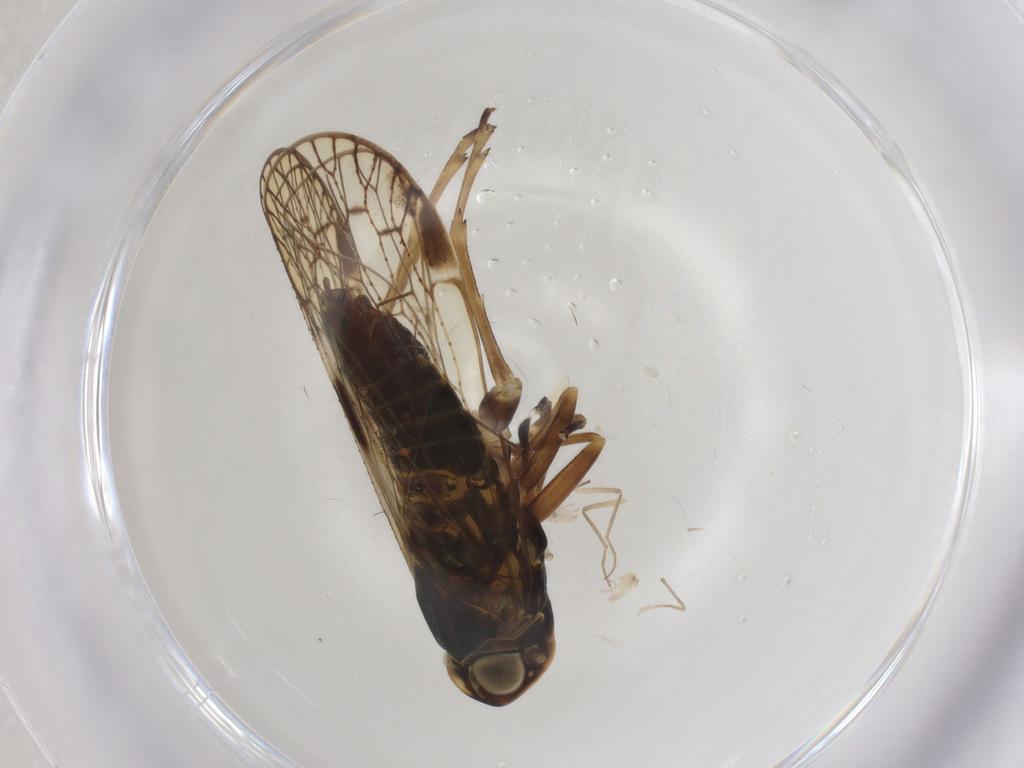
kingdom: Animalia
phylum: Arthropoda
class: Insecta
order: Hemiptera
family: Cixiidae
